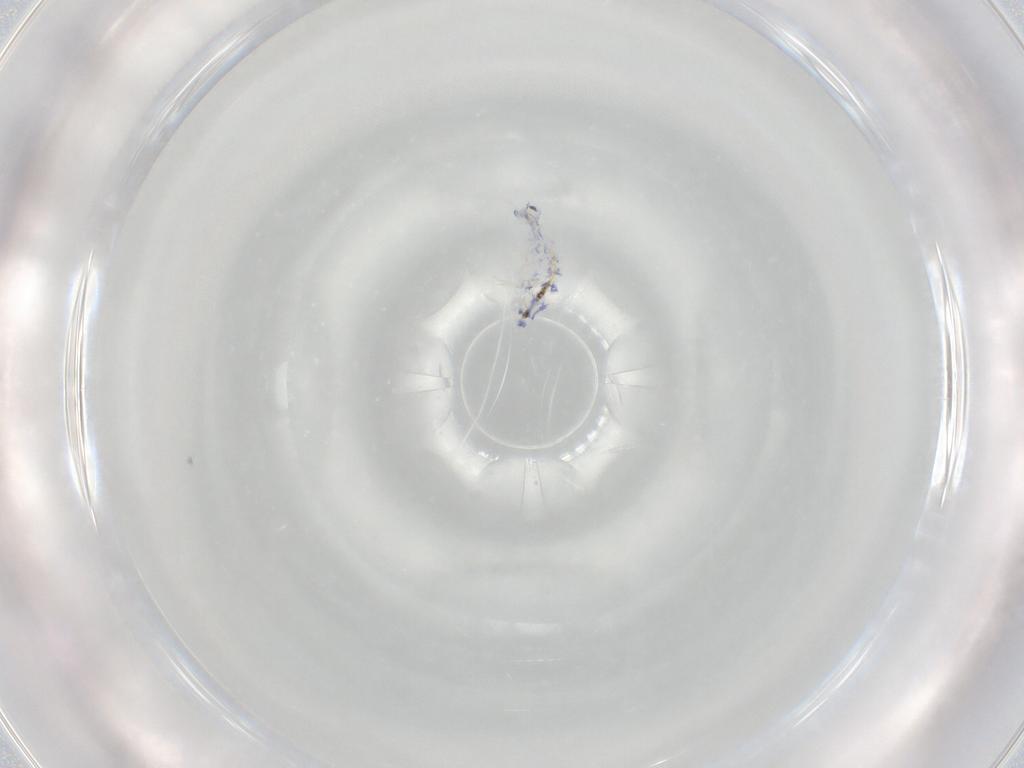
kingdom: Animalia
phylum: Arthropoda
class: Collembola
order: Entomobryomorpha
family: Entomobryidae
